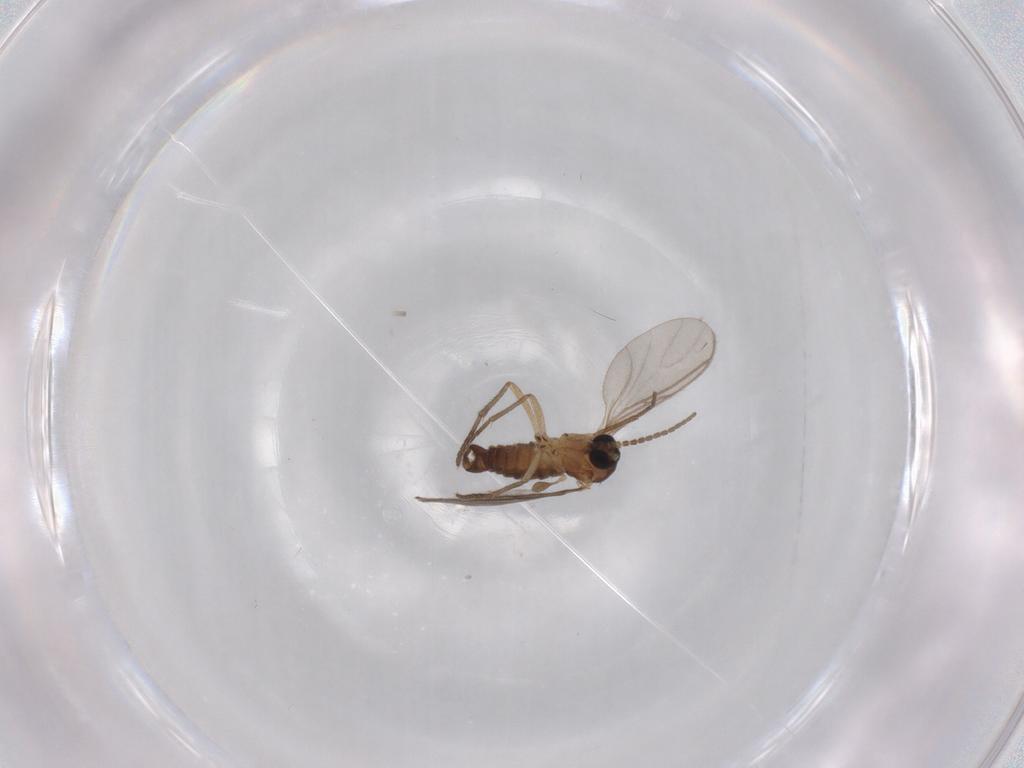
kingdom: Animalia
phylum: Arthropoda
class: Insecta
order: Diptera
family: Sciaridae
